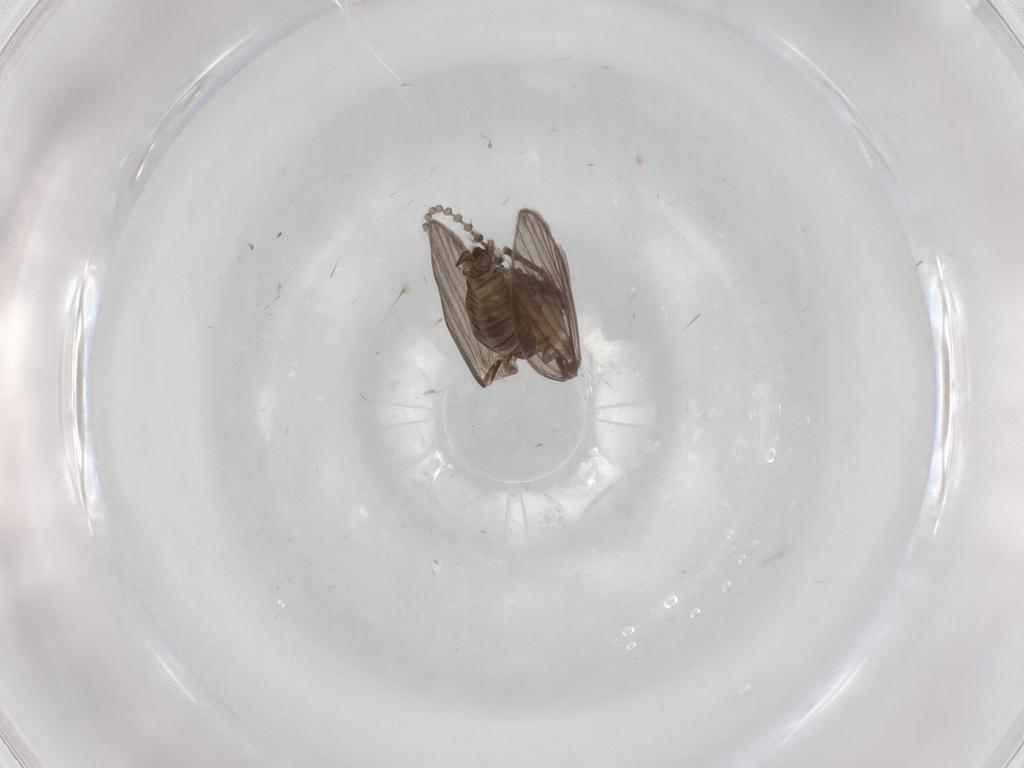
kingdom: Animalia
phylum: Arthropoda
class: Insecta
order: Diptera
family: Psychodidae
